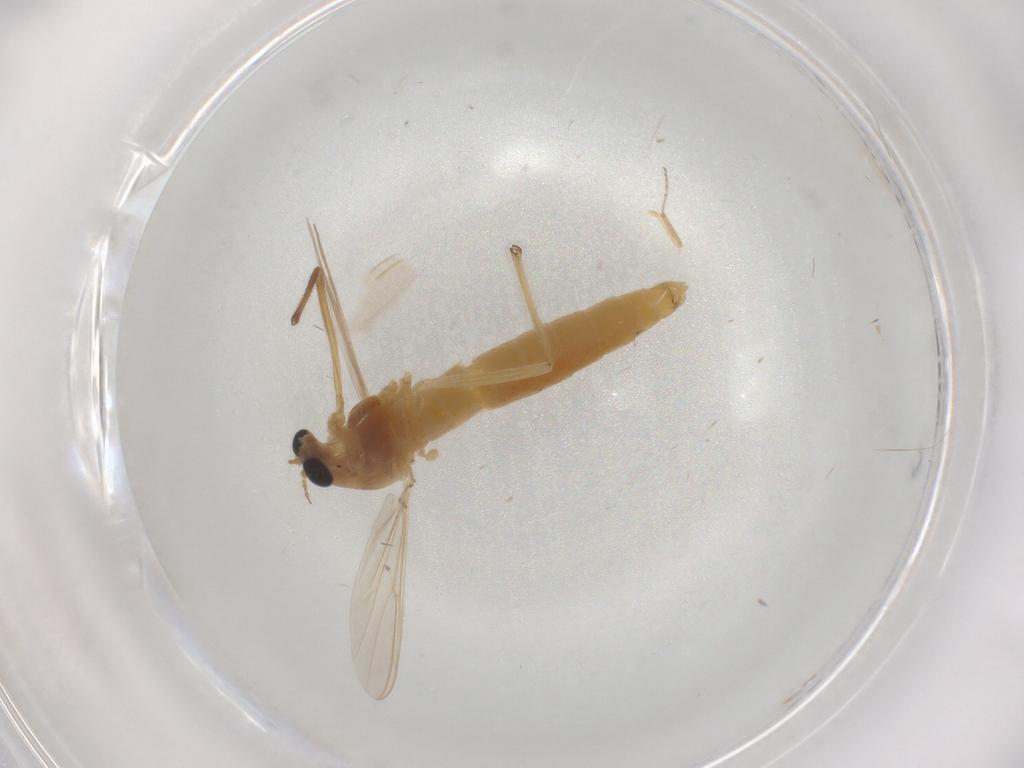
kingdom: Animalia
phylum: Arthropoda
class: Insecta
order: Diptera
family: Chironomidae
